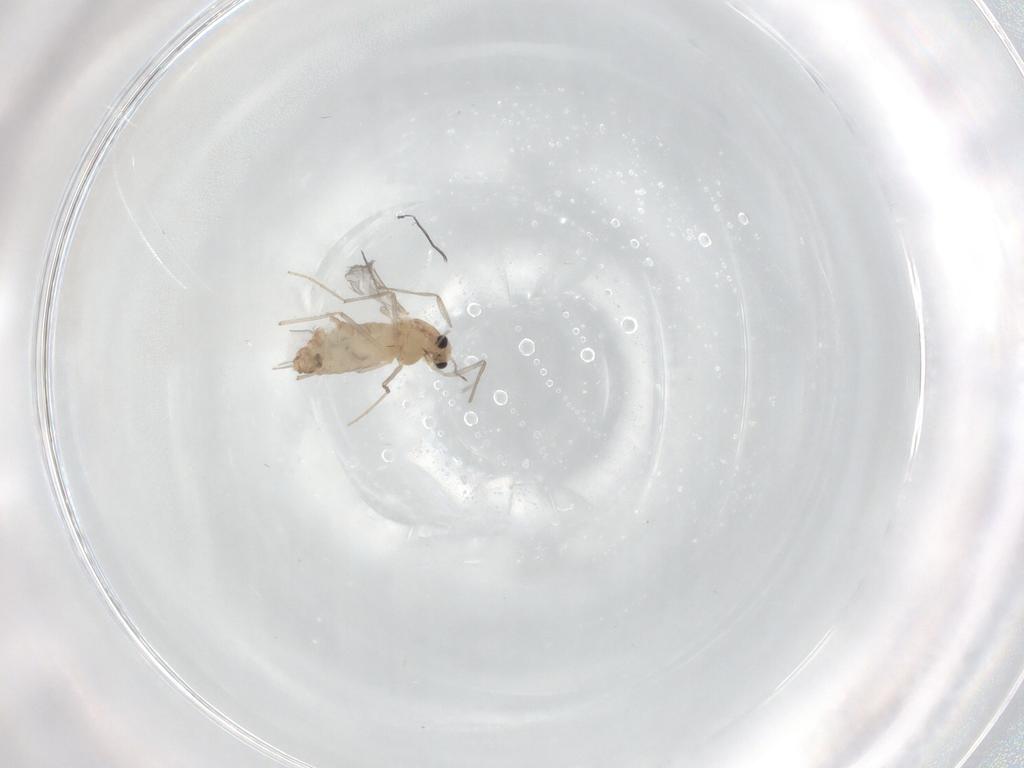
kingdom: Animalia
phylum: Arthropoda
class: Insecta
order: Diptera
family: Chironomidae
